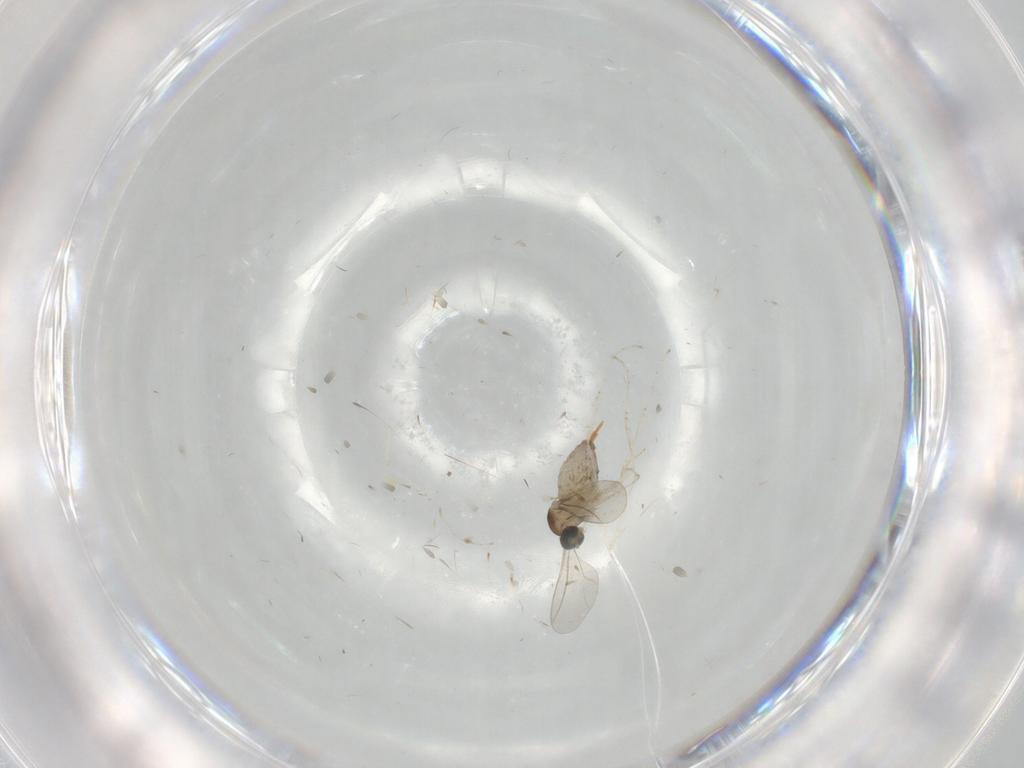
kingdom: Animalia
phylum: Arthropoda
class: Insecta
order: Diptera
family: Cecidomyiidae
